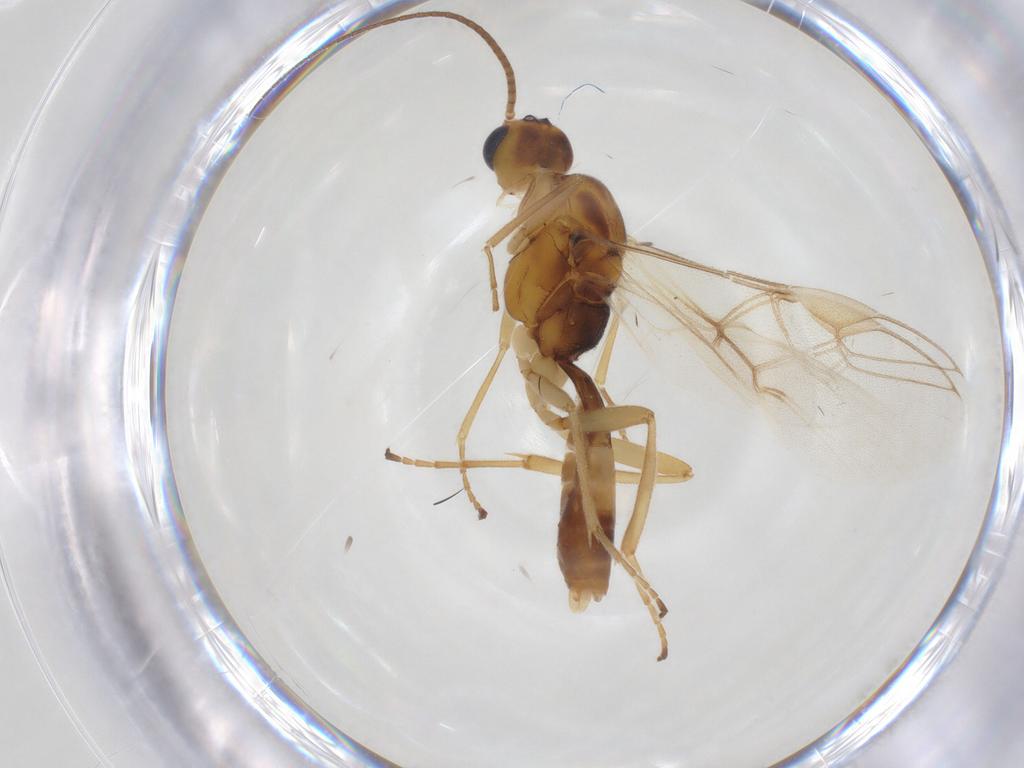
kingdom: Animalia
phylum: Arthropoda
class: Insecta
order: Hymenoptera
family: Braconidae
